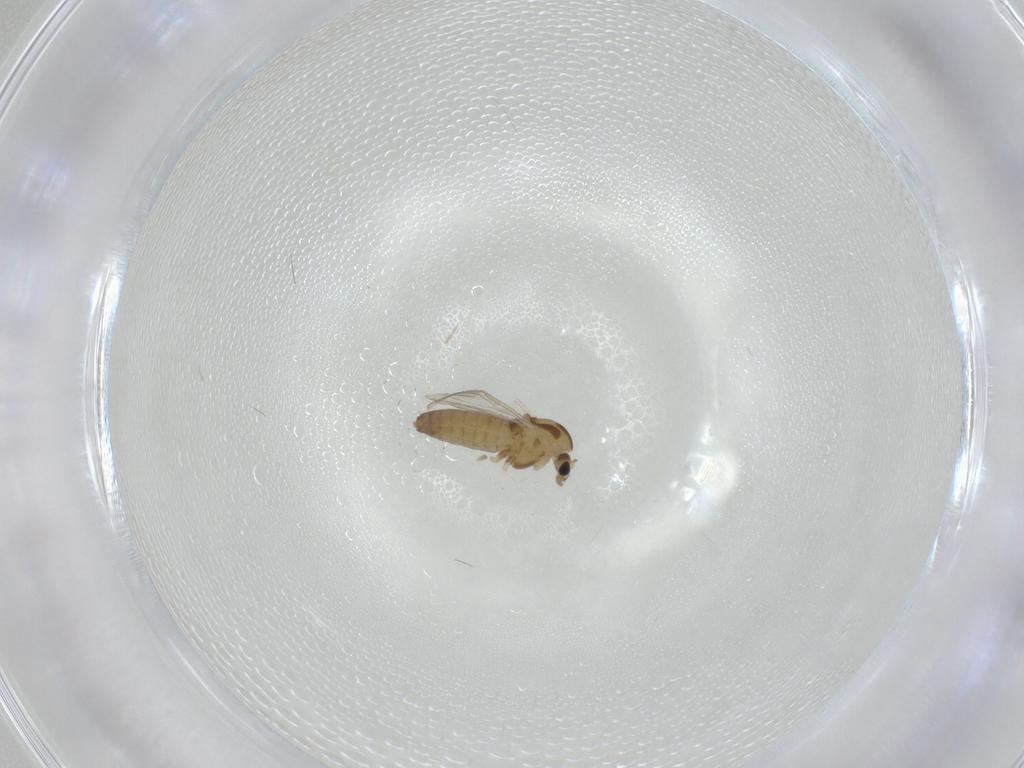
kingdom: Animalia
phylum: Arthropoda
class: Insecta
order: Diptera
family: Chironomidae
